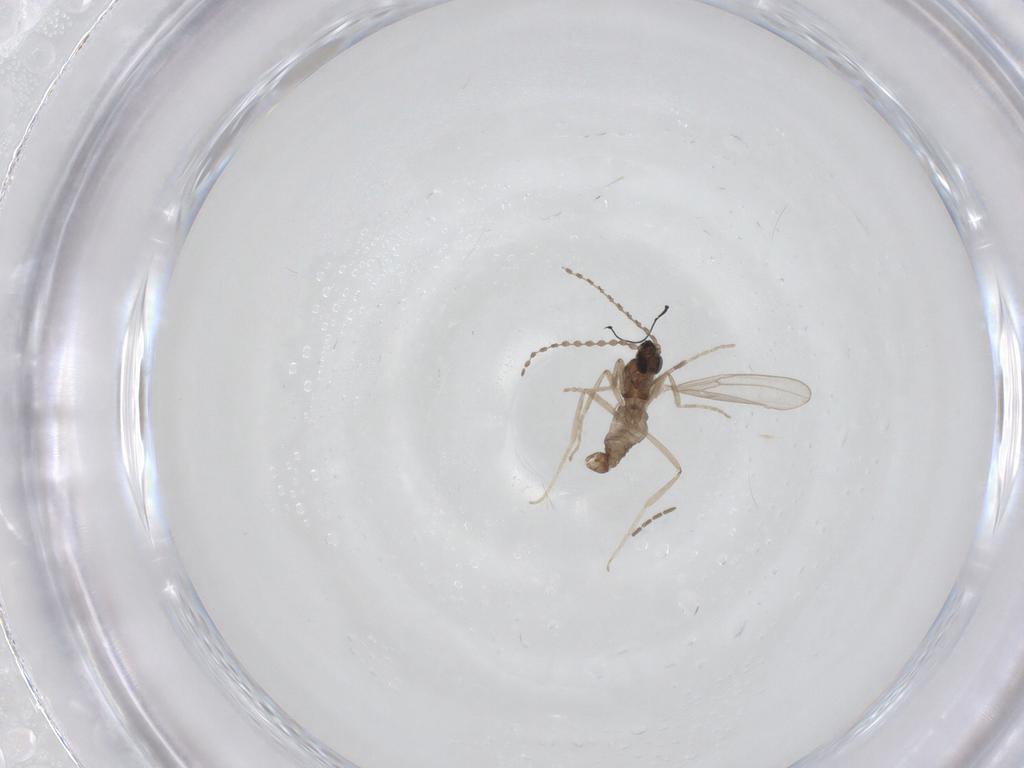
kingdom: Animalia
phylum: Arthropoda
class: Insecta
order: Diptera
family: Cecidomyiidae
